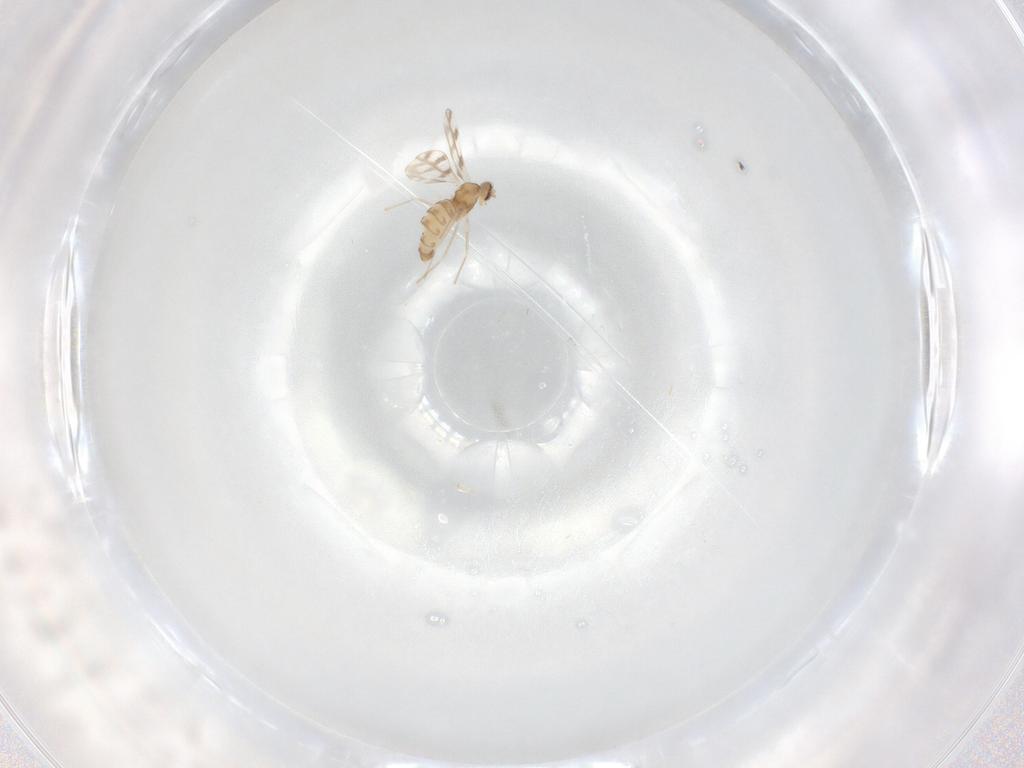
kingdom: Animalia
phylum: Arthropoda
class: Insecta
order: Diptera
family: Cecidomyiidae
